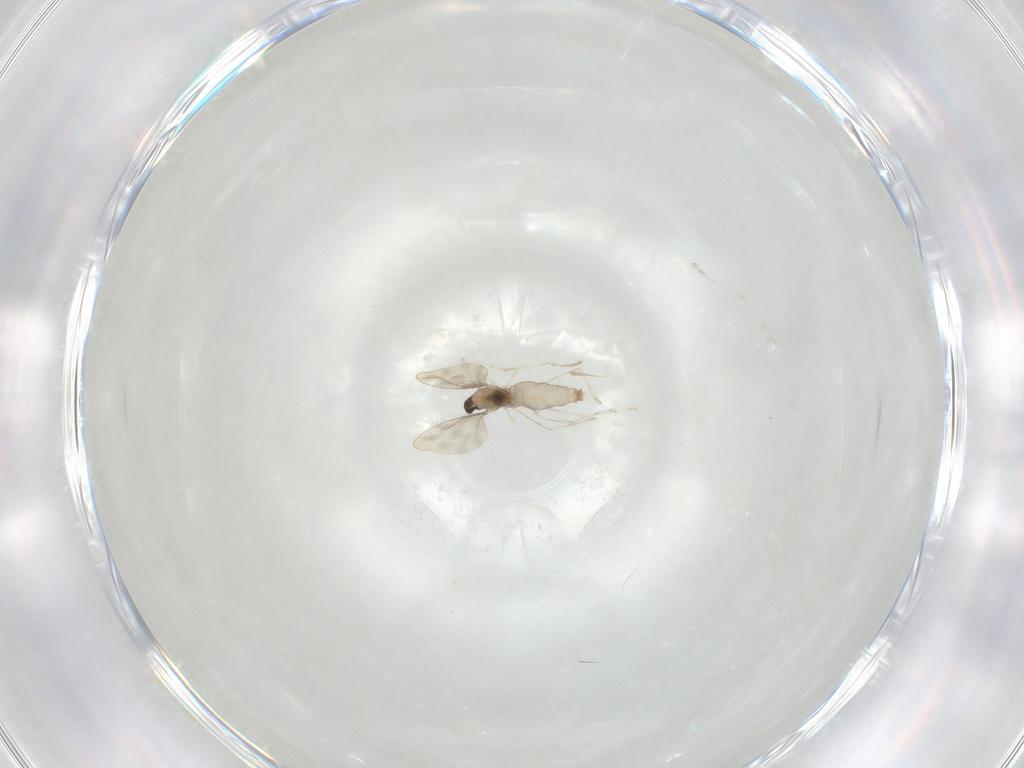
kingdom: Animalia
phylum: Arthropoda
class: Insecta
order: Diptera
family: Cecidomyiidae
